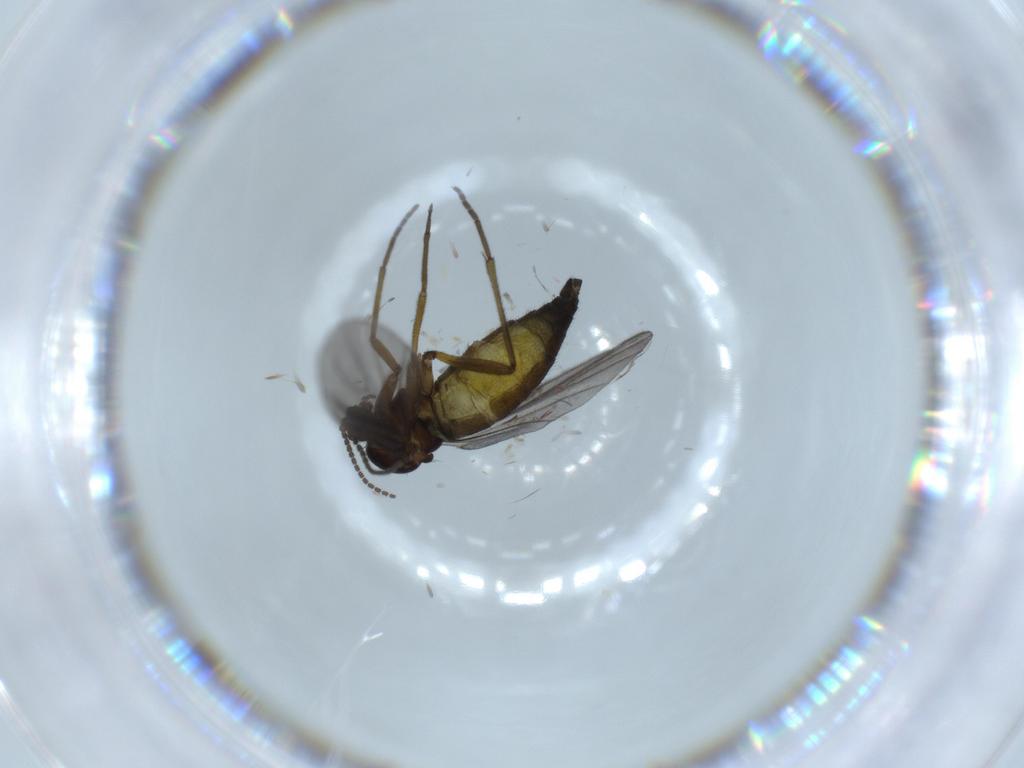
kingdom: Animalia
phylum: Arthropoda
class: Insecta
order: Diptera
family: Sciaridae
